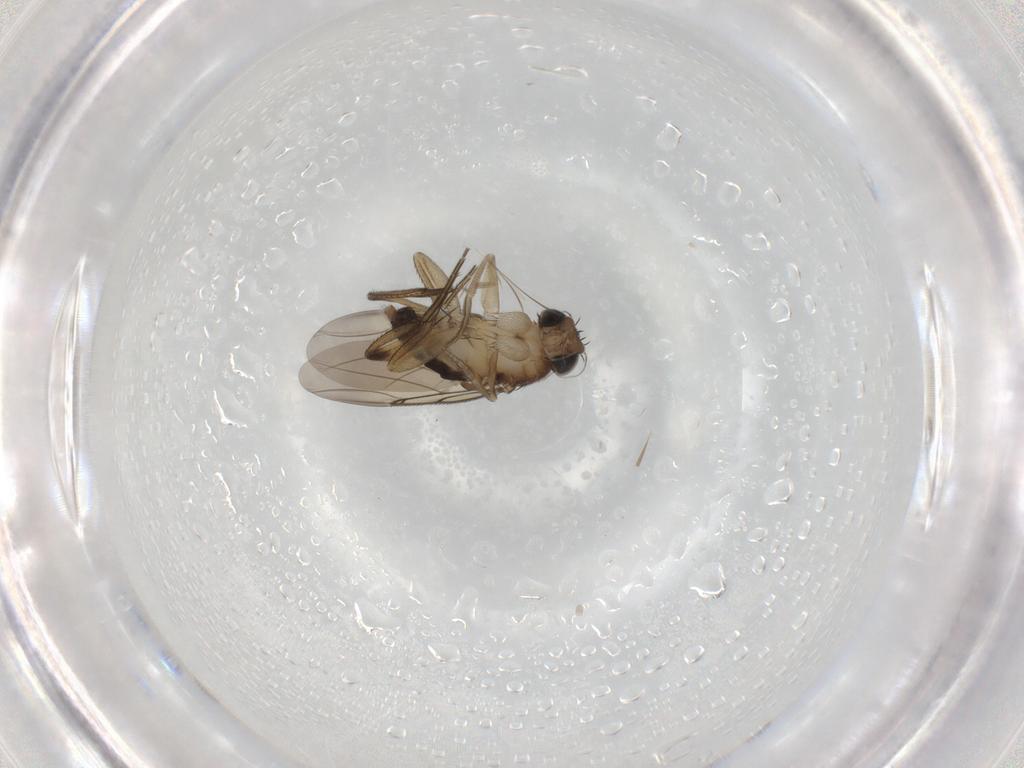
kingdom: Animalia
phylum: Arthropoda
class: Insecta
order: Diptera
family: Phoridae
